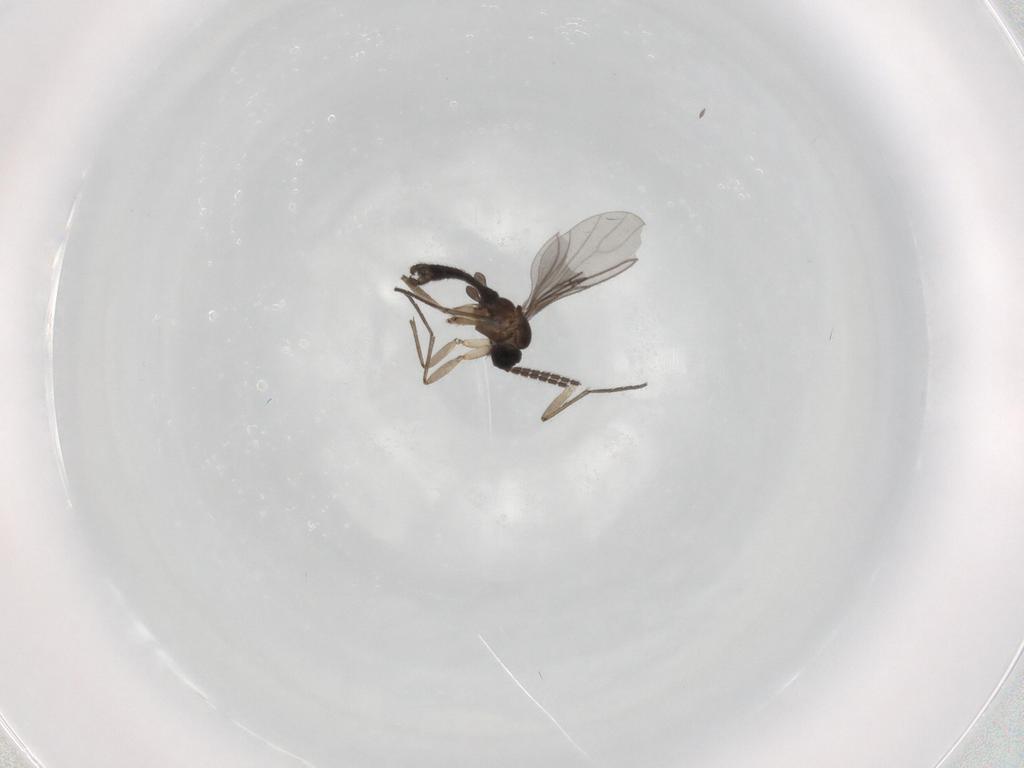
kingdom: Animalia
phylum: Arthropoda
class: Insecta
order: Diptera
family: Sciaridae
